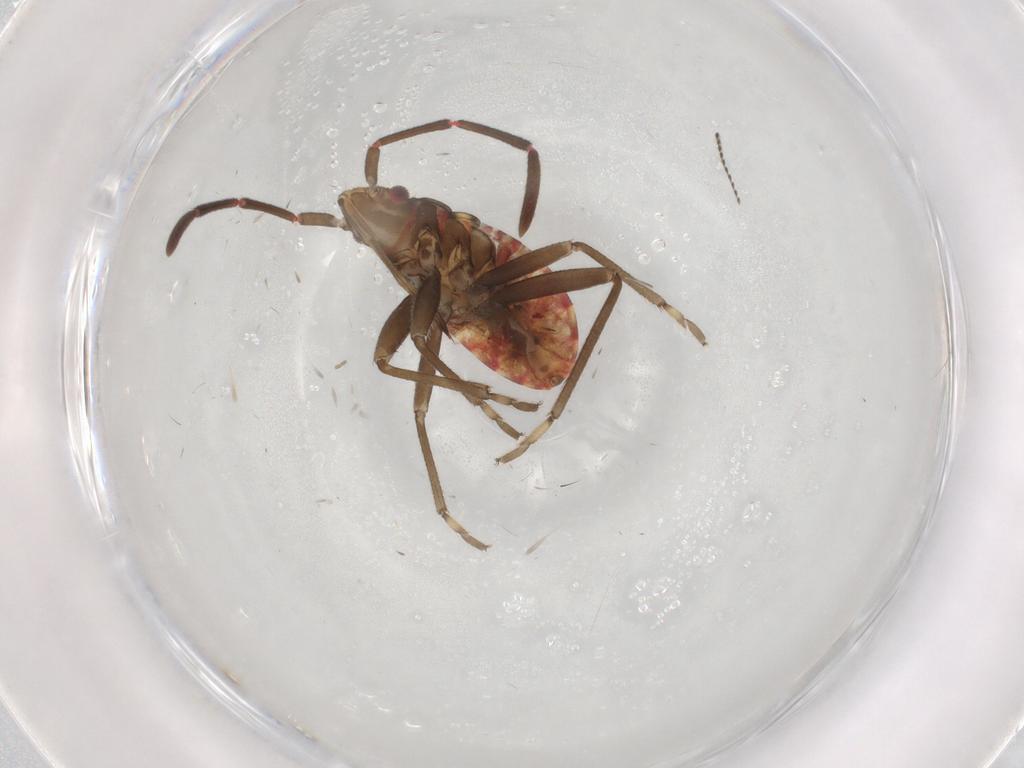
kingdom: Animalia
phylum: Arthropoda
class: Insecta
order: Hemiptera
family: Rhyparochromidae
